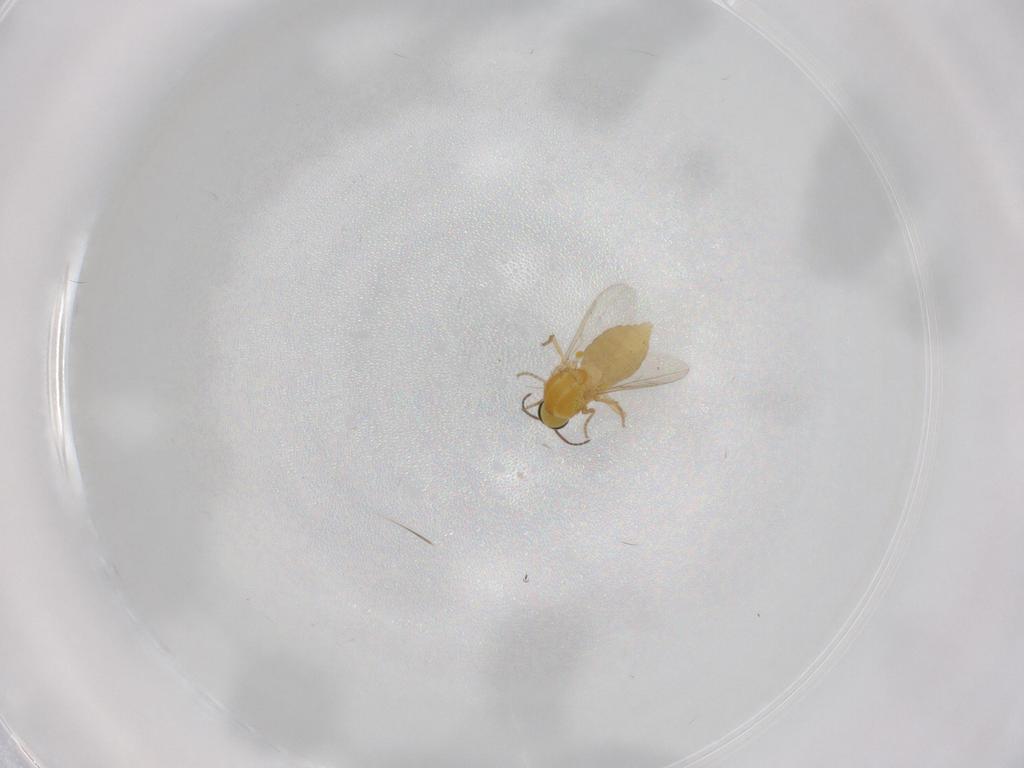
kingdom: Animalia
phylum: Arthropoda
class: Insecta
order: Diptera
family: Ceratopogonidae
